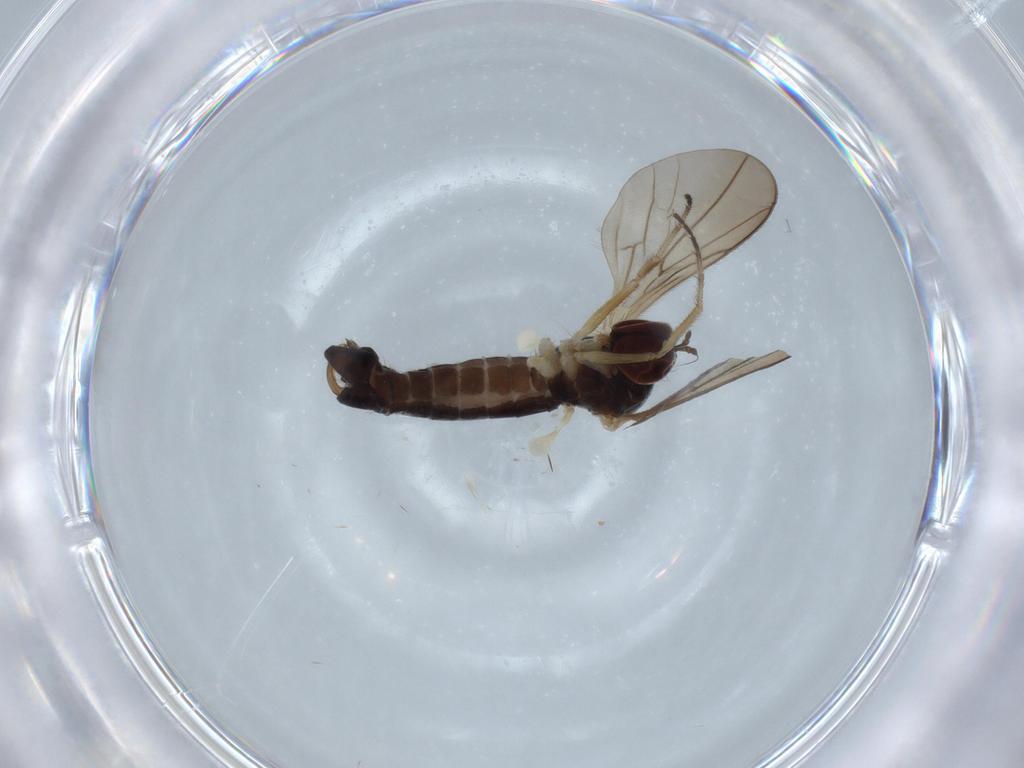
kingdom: Animalia
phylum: Arthropoda
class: Insecta
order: Diptera
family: Hybotidae
